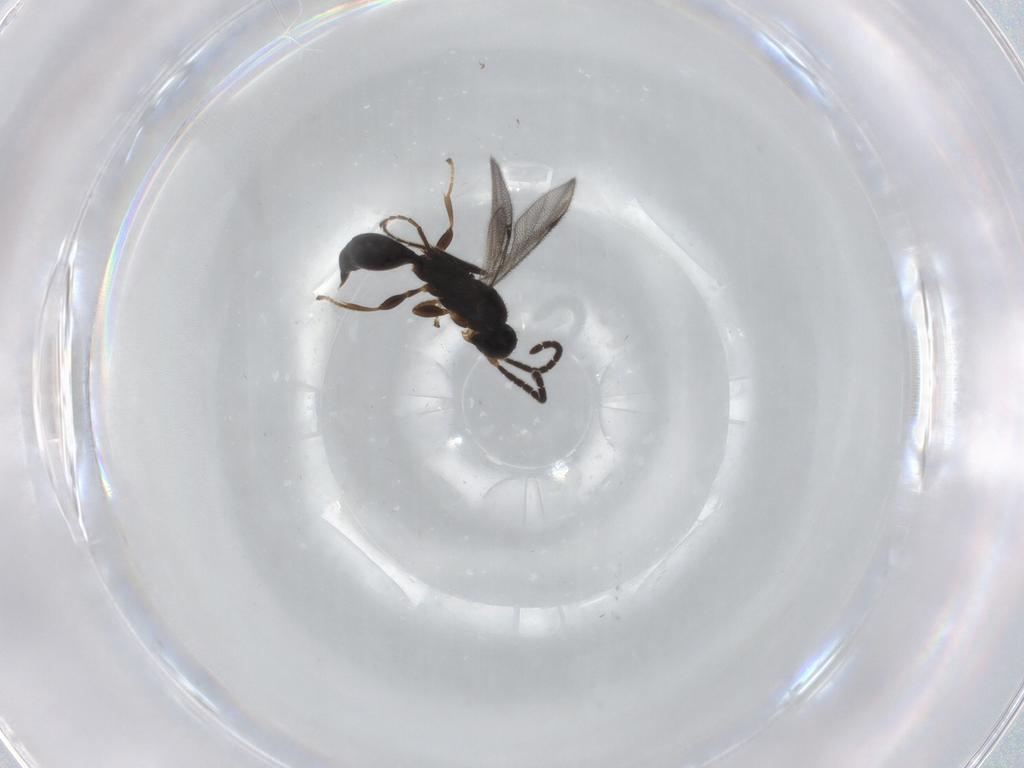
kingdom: Animalia
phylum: Arthropoda
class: Insecta
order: Hymenoptera
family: Proctotrupidae
